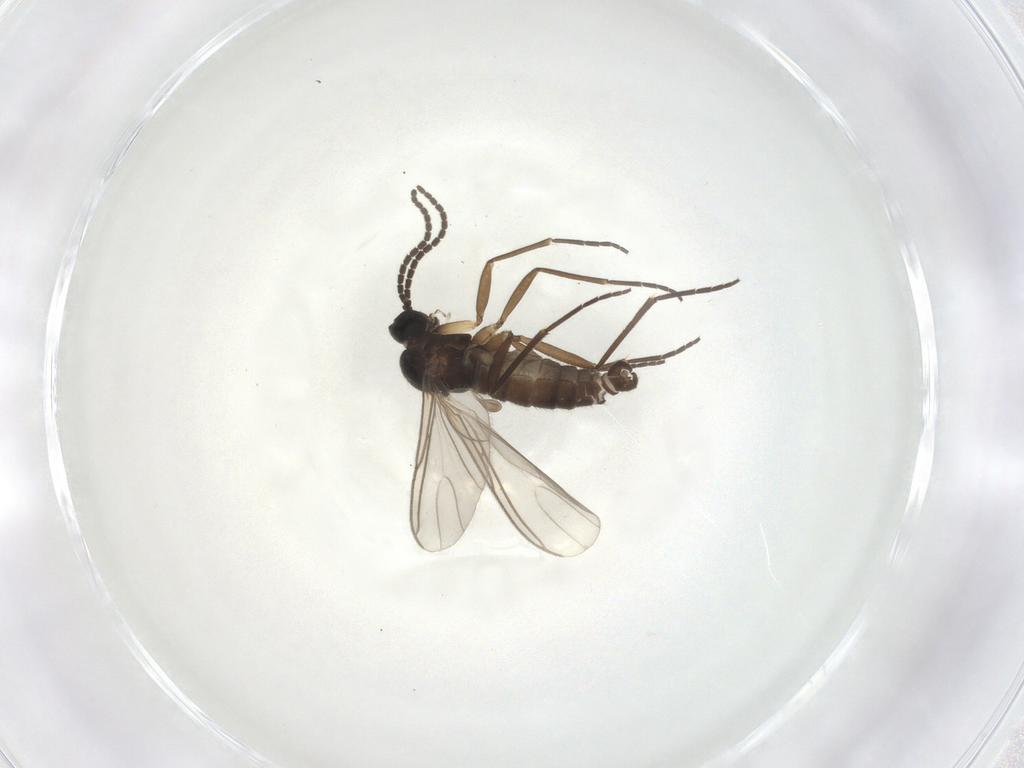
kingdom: Animalia
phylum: Arthropoda
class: Insecta
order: Diptera
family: Sciaridae
